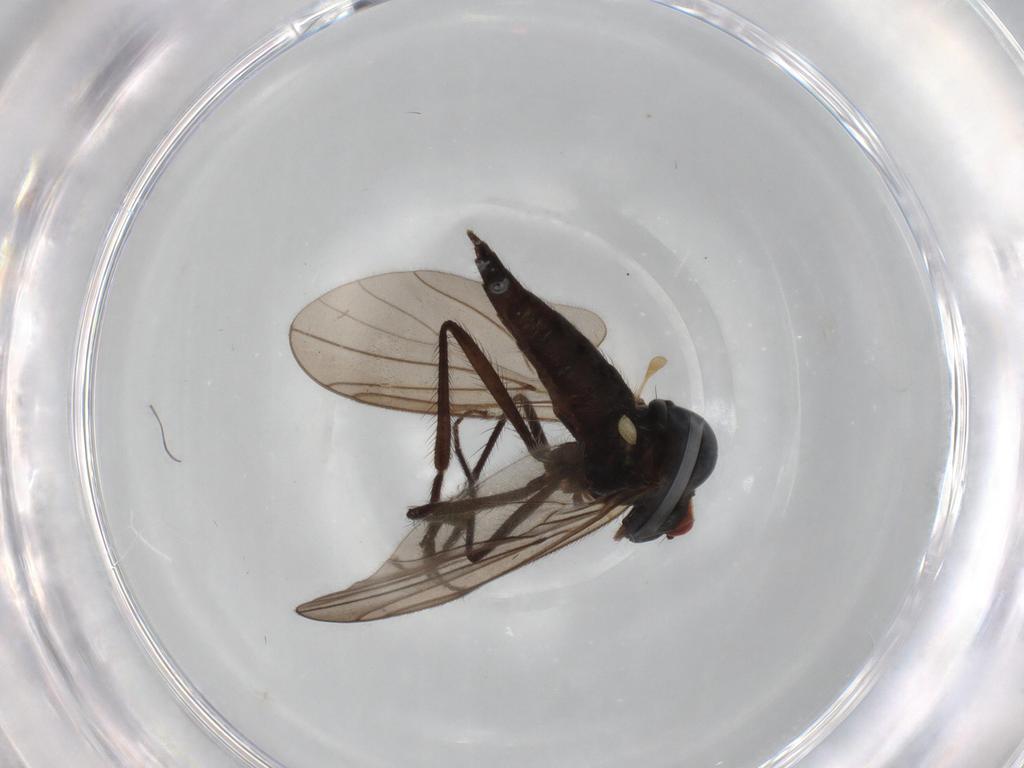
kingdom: Animalia
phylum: Arthropoda
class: Insecta
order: Diptera
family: Hybotidae
